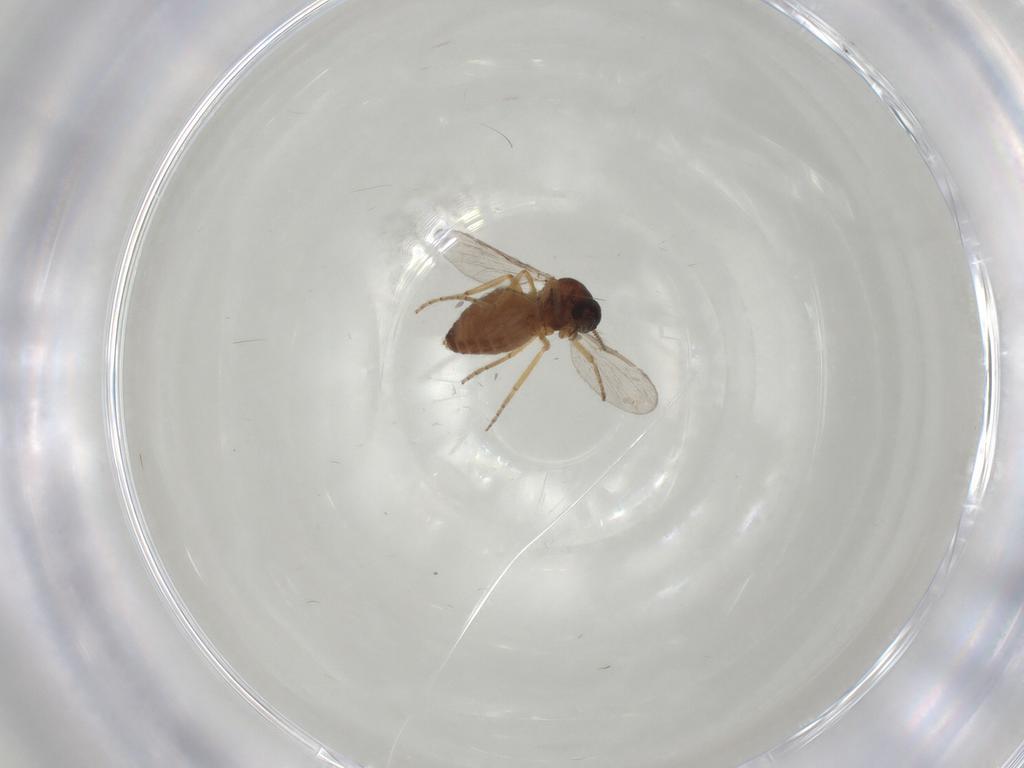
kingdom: Animalia
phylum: Arthropoda
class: Insecta
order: Diptera
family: Ceratopogonidae
